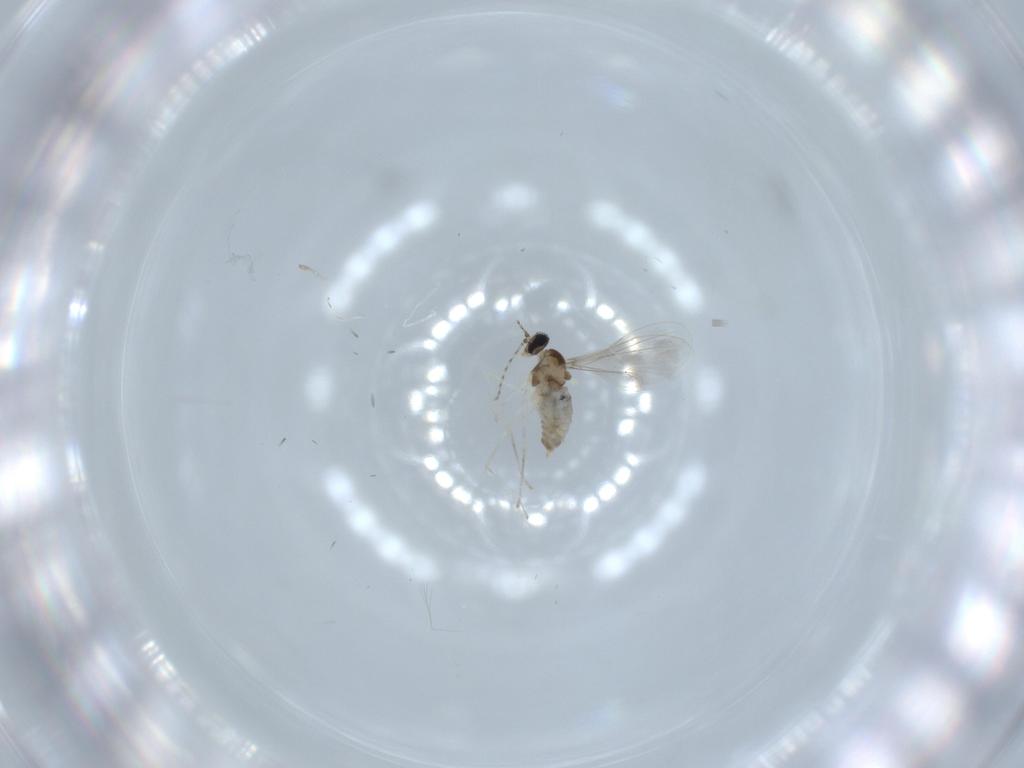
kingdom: Animalia
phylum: Arthropoda
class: Insecta
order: Diptera
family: Cecidomyiidae
